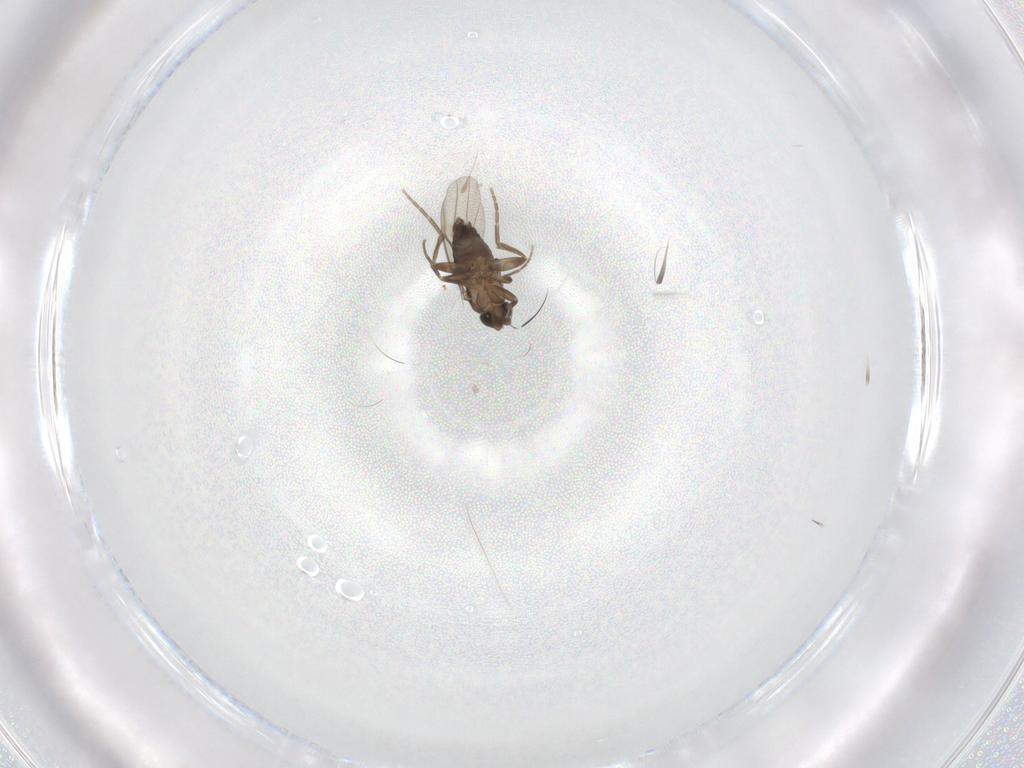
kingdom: Animalia
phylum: Arthropoda
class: Insecta
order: Diptera
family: Phoridae
